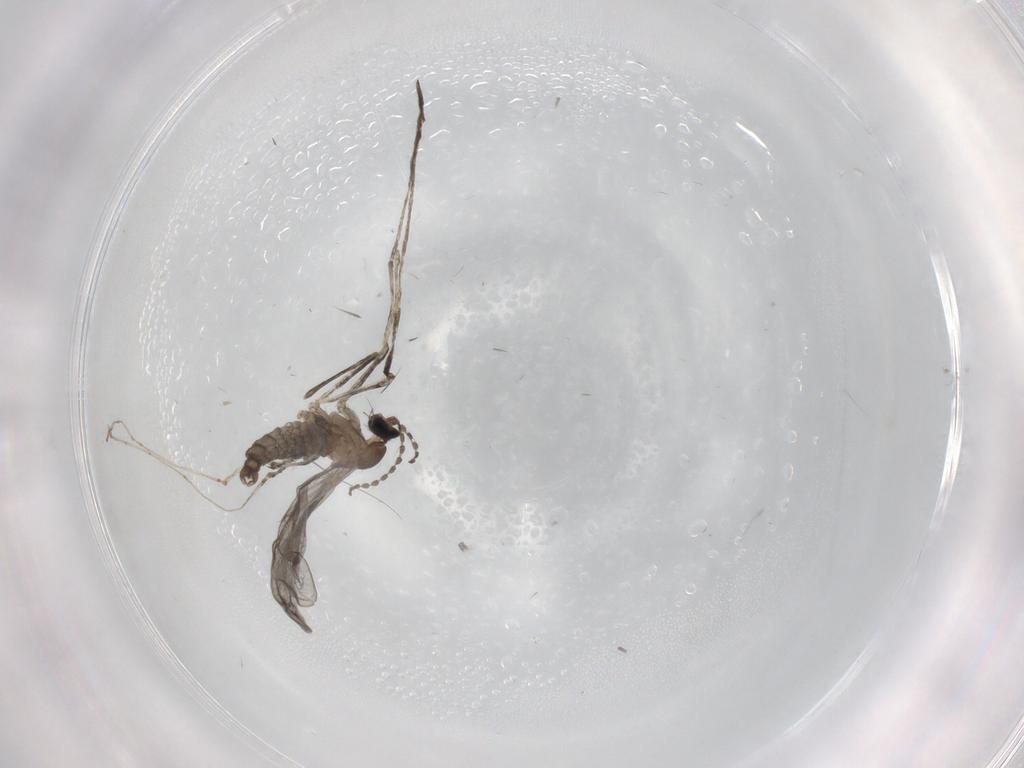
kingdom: Animalia
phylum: Arthropoda
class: Insecta
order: Diptera
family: Cecidomyiidae
